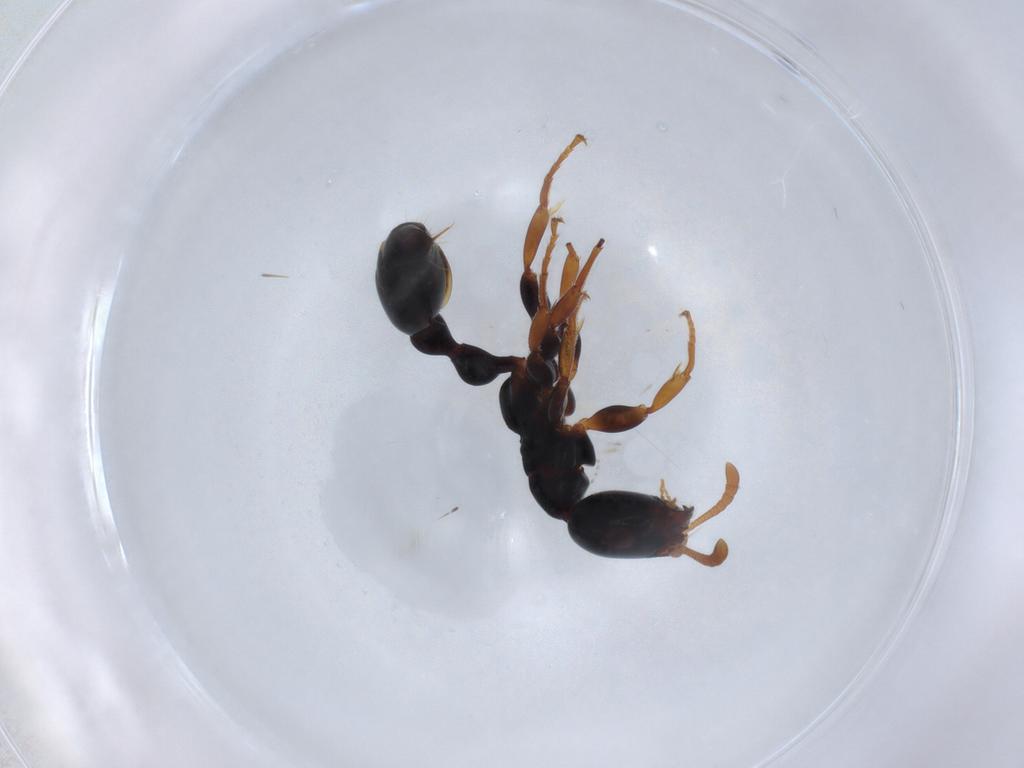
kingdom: Animalia
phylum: Arthropoda
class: Insecta
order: Hymenoptera
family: Formicidae
